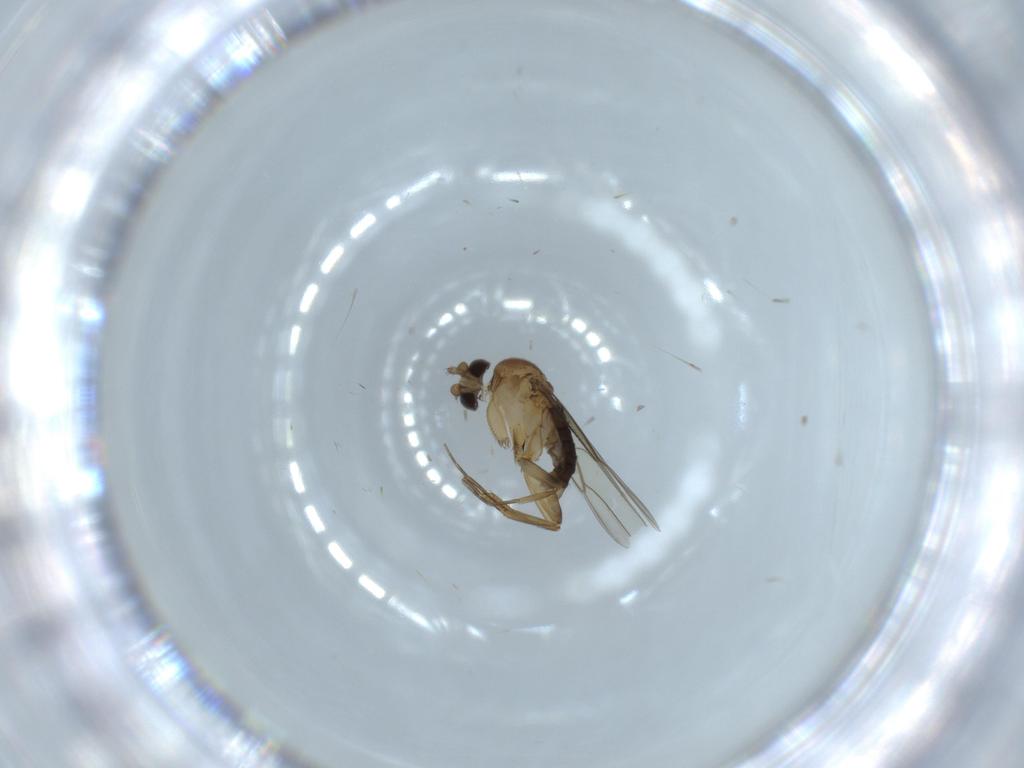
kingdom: Animalia
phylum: Arthropoda
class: Insecta
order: Diptera
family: Phoridae
